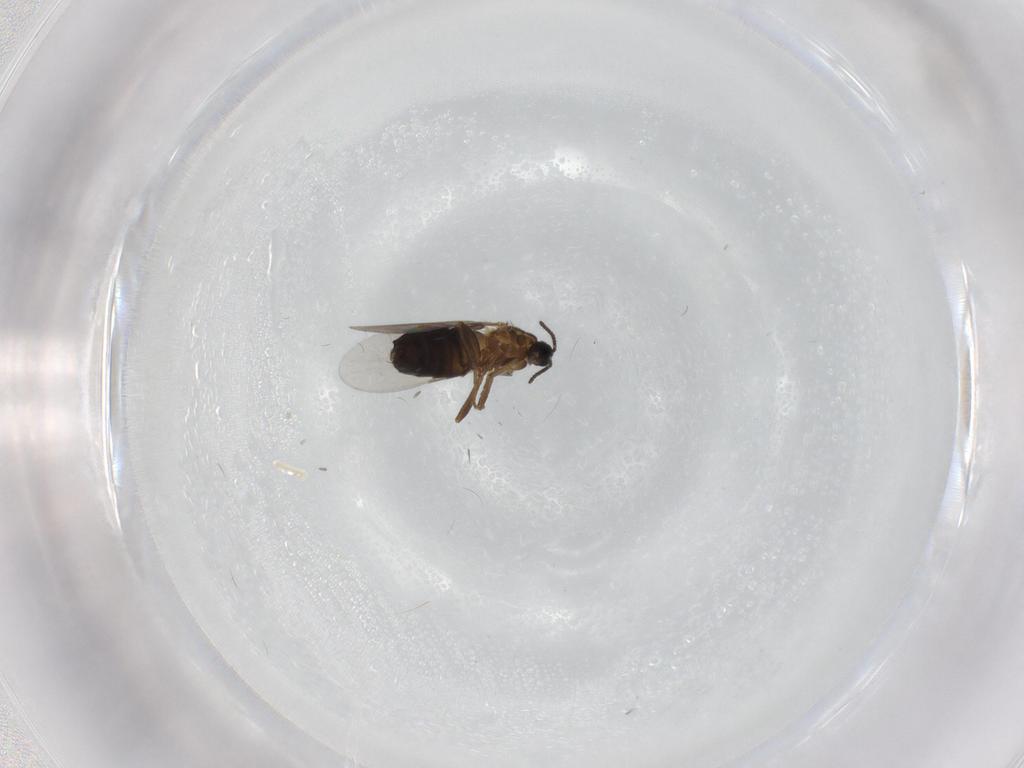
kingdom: Animalia
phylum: Arthropoda
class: Insecta
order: Diptera
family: Scatopsidae
